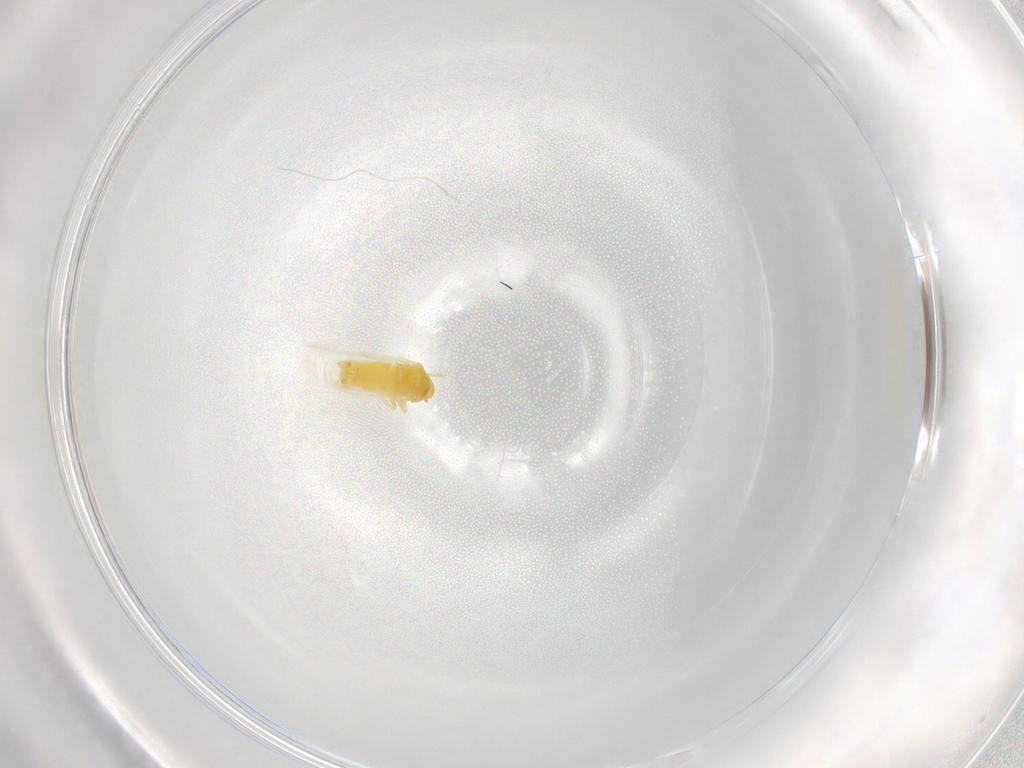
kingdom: Animalia
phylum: Arthropoda
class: Insecta
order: Hemiptera
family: Aleyrodidae
